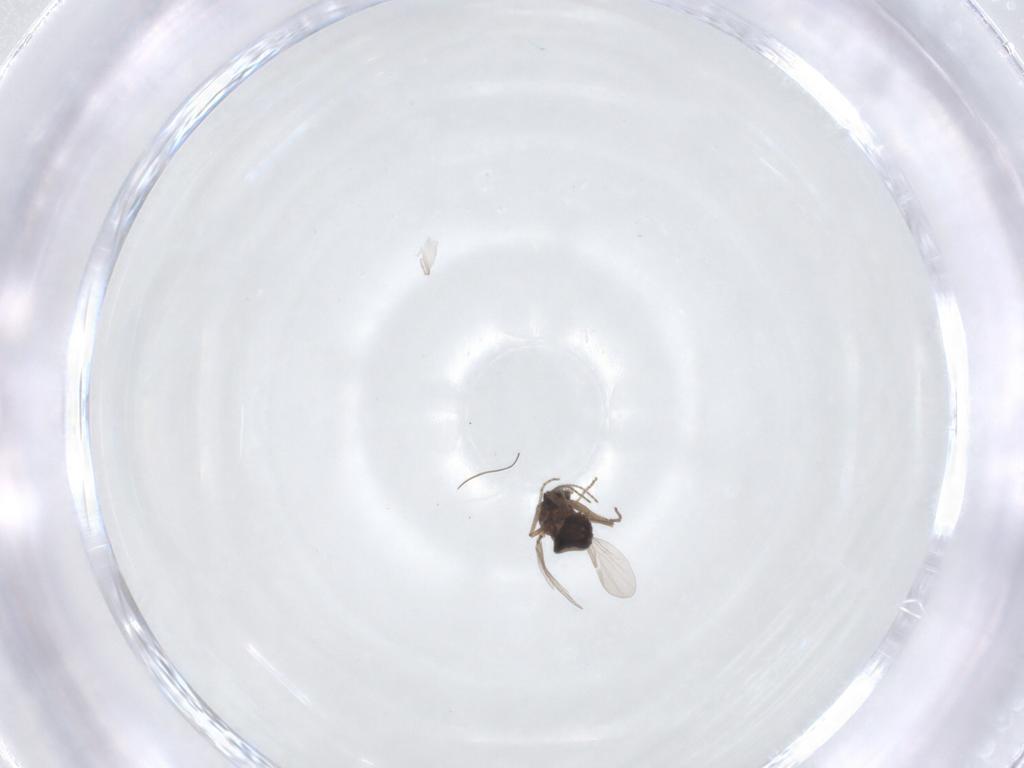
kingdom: Animalia
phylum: Arthropoda
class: Insecta
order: Diptera
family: Ceratopogonidae
